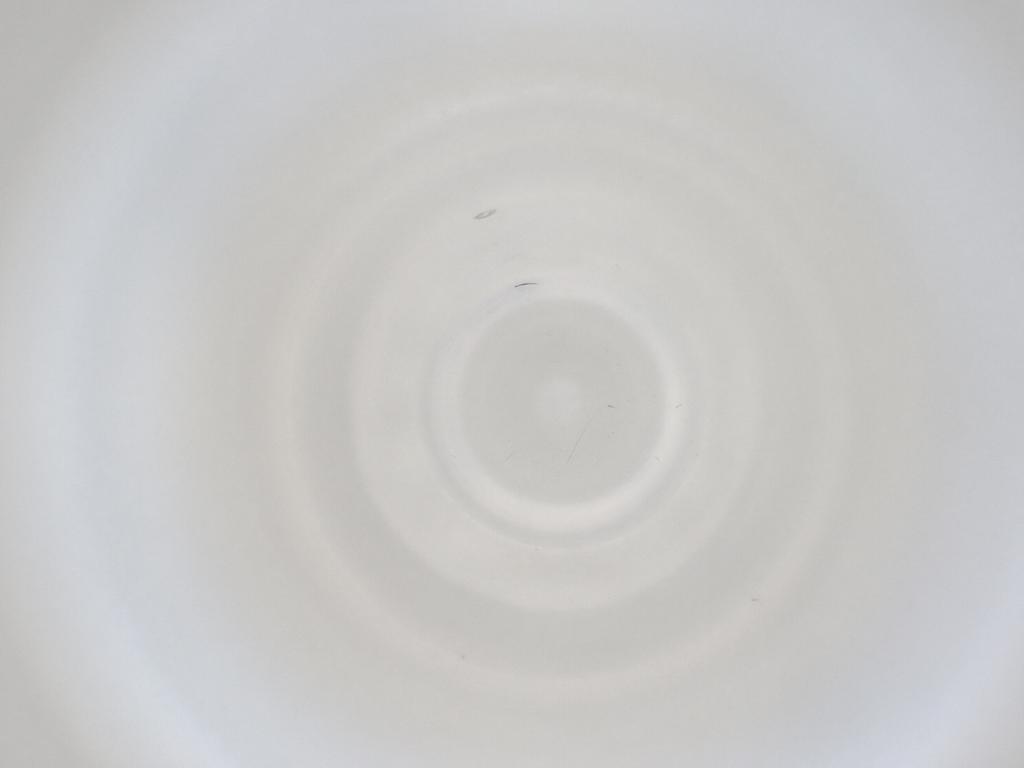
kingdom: Animalia
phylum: Arthropoda
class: Insecta
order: Diptera
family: Cecidomyiidae
